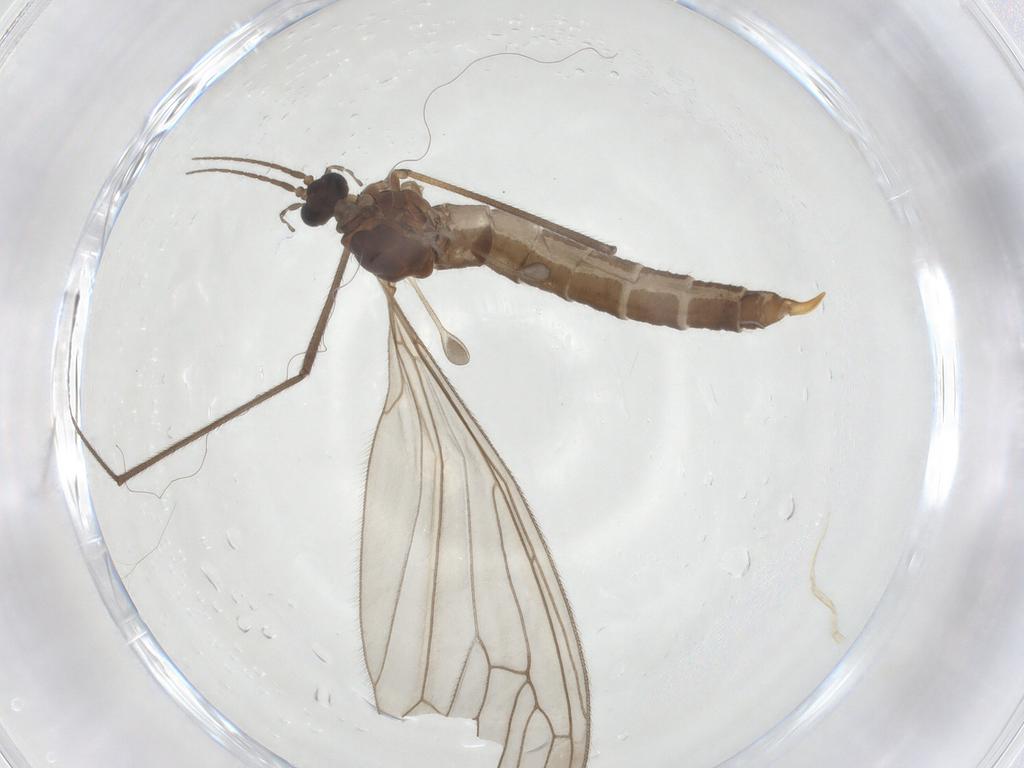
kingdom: Animalia
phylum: Arthropoda
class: Insecta
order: Diptera
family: Trichoceridae
